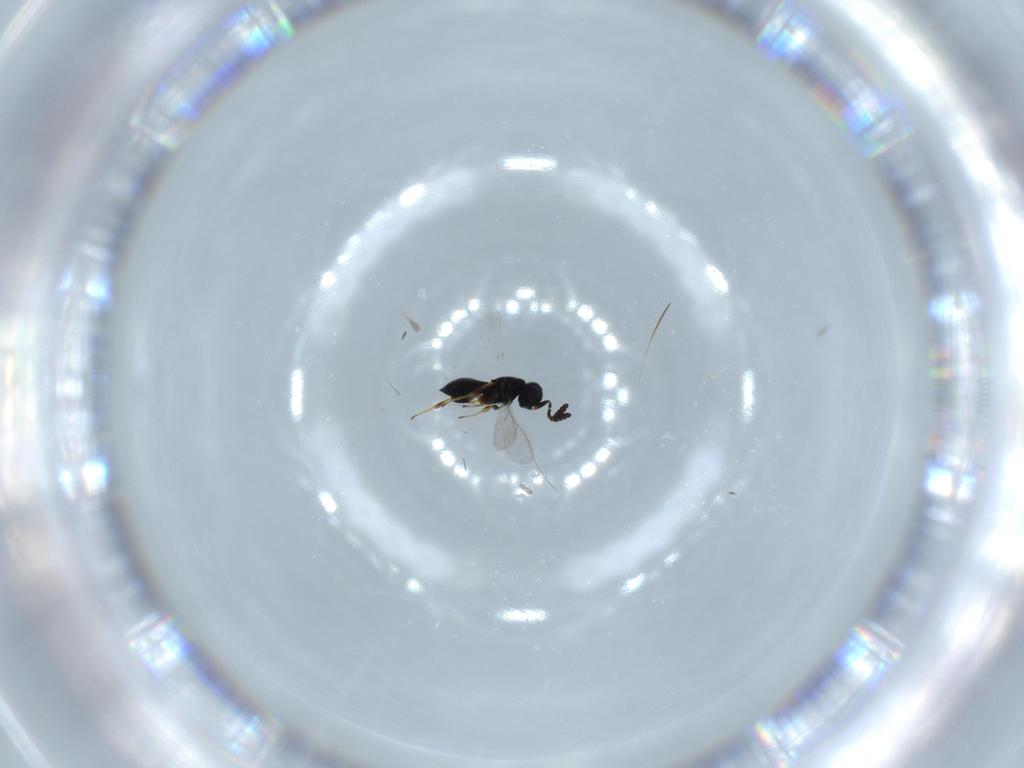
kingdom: Animalia
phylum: Arthropoda
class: Insecta
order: Hymenoptera
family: Scelionidae
